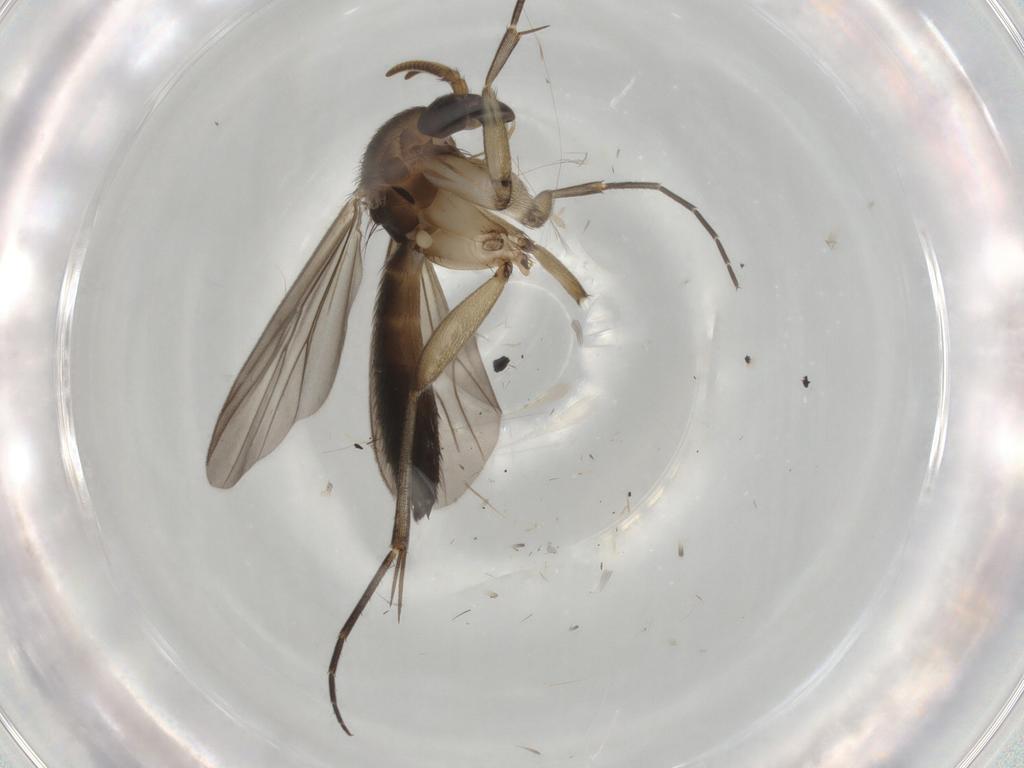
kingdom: Animalia
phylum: Arthropoda
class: Insecta
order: Diptera
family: Mycetophilidae
